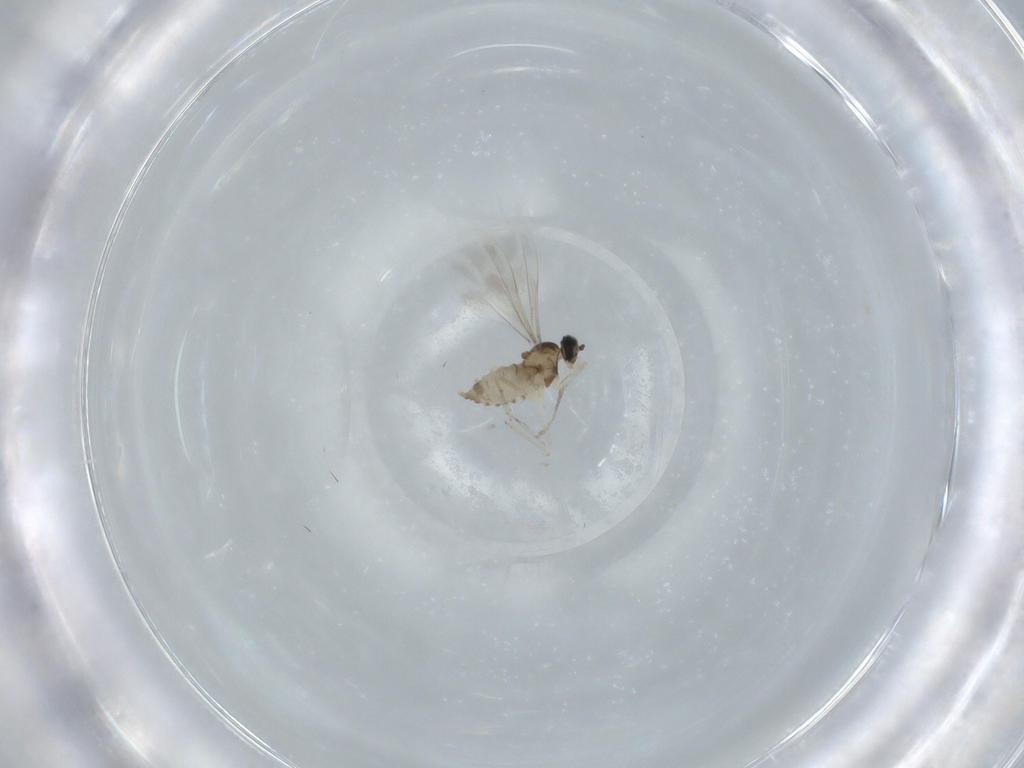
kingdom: Animalia
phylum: Arthropoda
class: Insecta
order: Diptera
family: Cecidomyiidae
